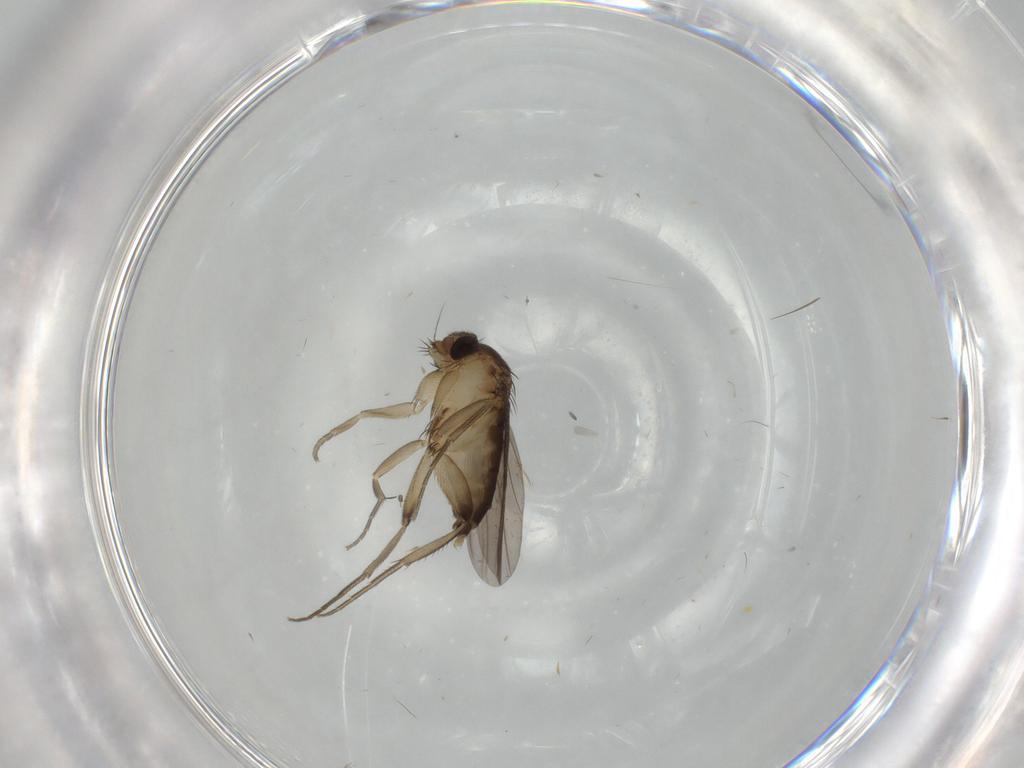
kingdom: Animalia
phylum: Arthropoda
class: Insecta
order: Diptera
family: Phoridae
